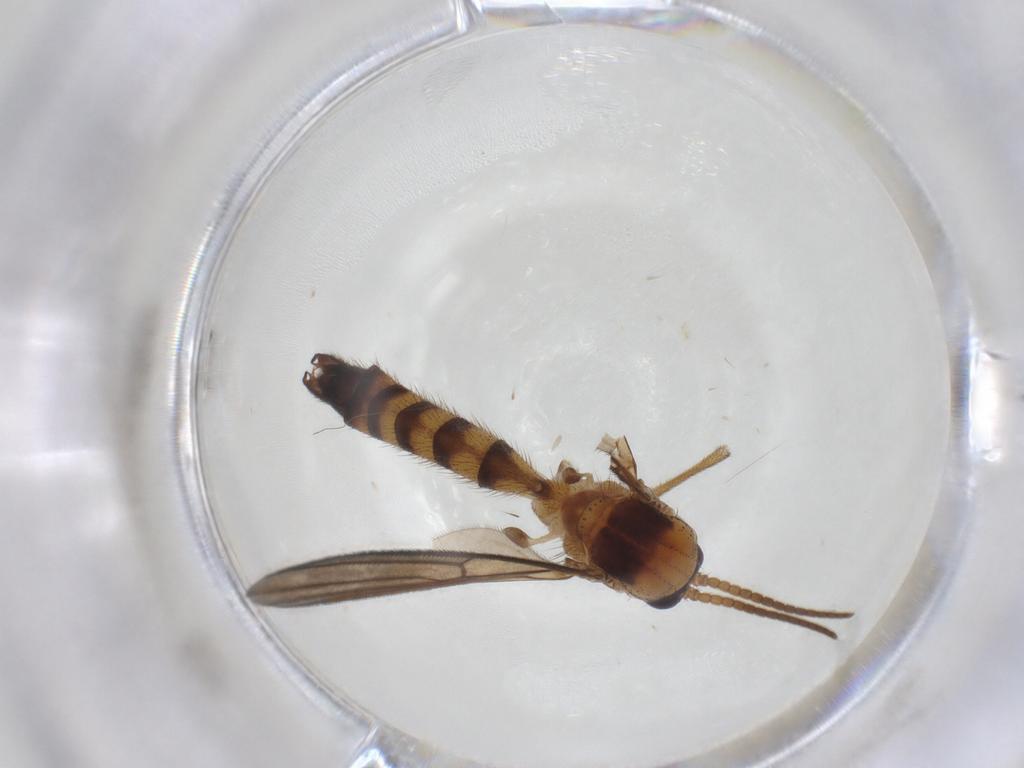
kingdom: Animalia
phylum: Arthropoda
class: Insecta
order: Diptera
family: Mycetophilidae
